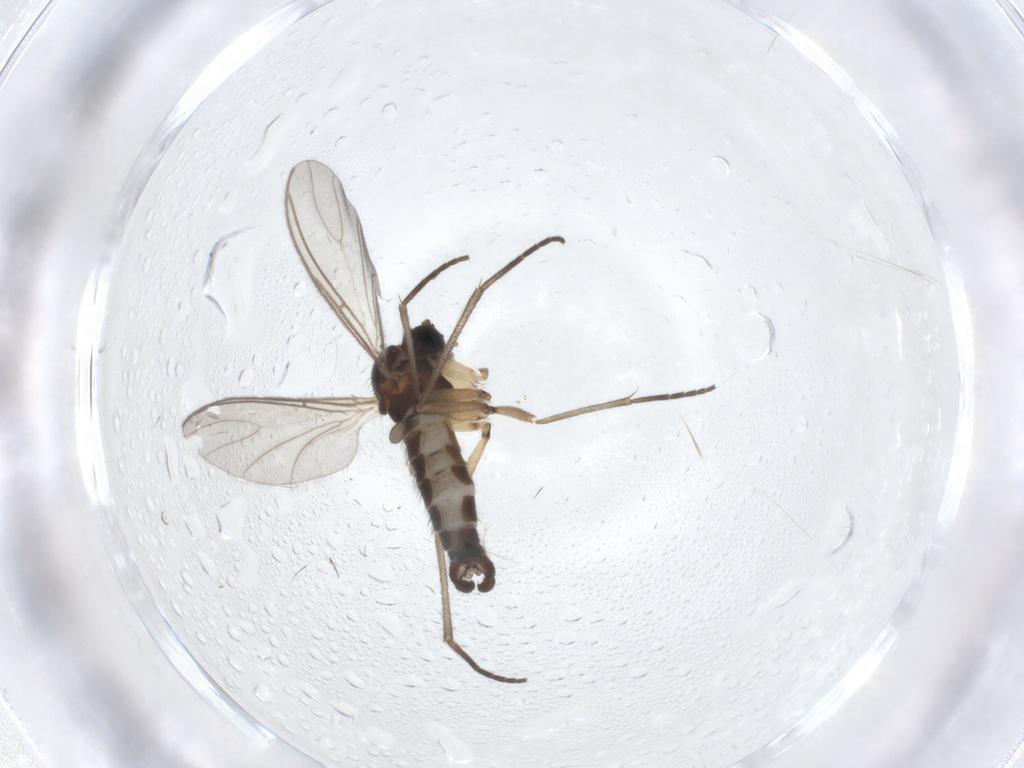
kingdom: Animalia
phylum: Arthropoda
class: Insecta
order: Diptera
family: Sciaridae
